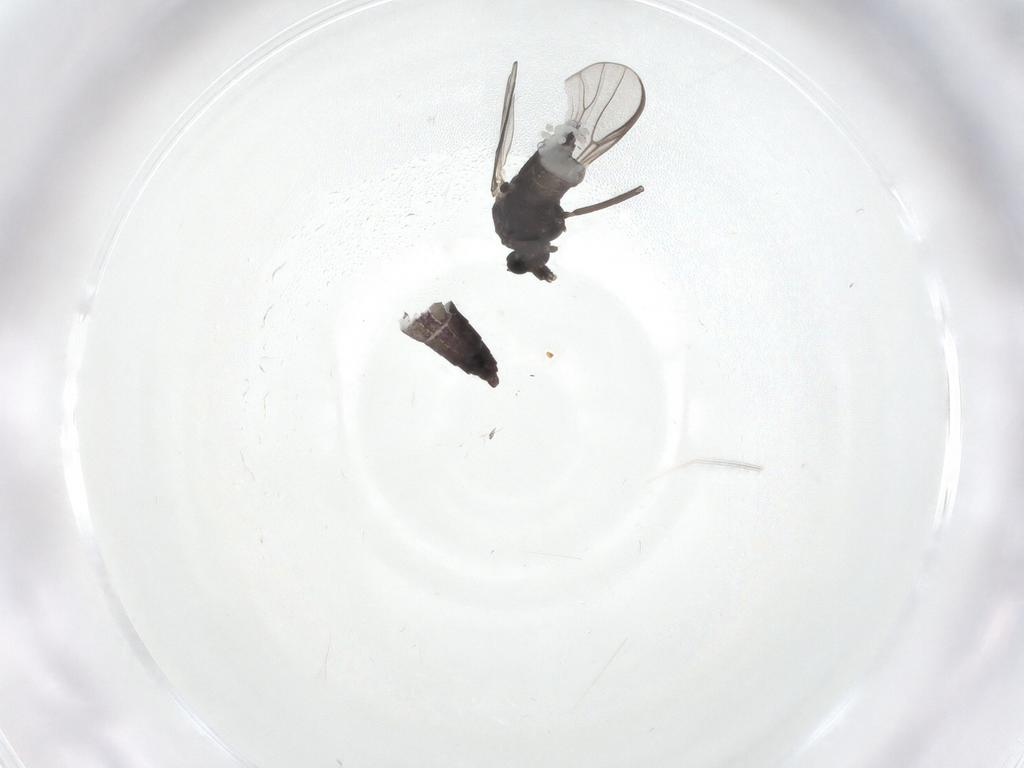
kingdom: Animalia
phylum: Arthropoda
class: Insecta
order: Diptera
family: Chironomidae
